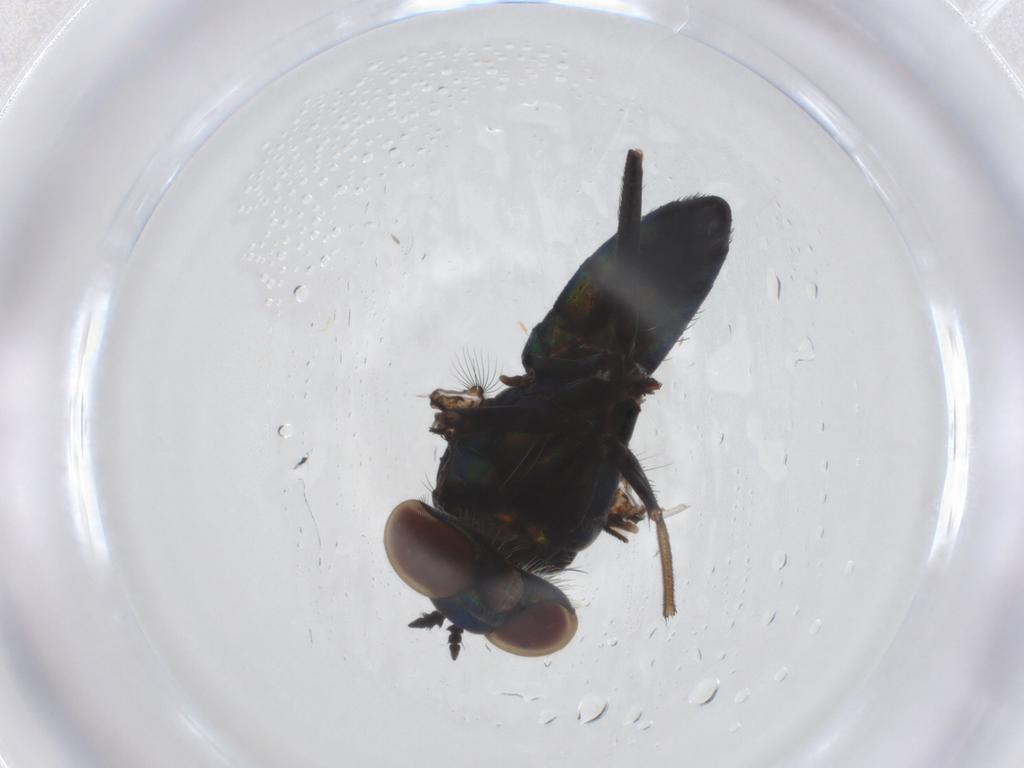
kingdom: Animalia
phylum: Arthropoda
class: Insecta
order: Diptera
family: Dolichopodidae
